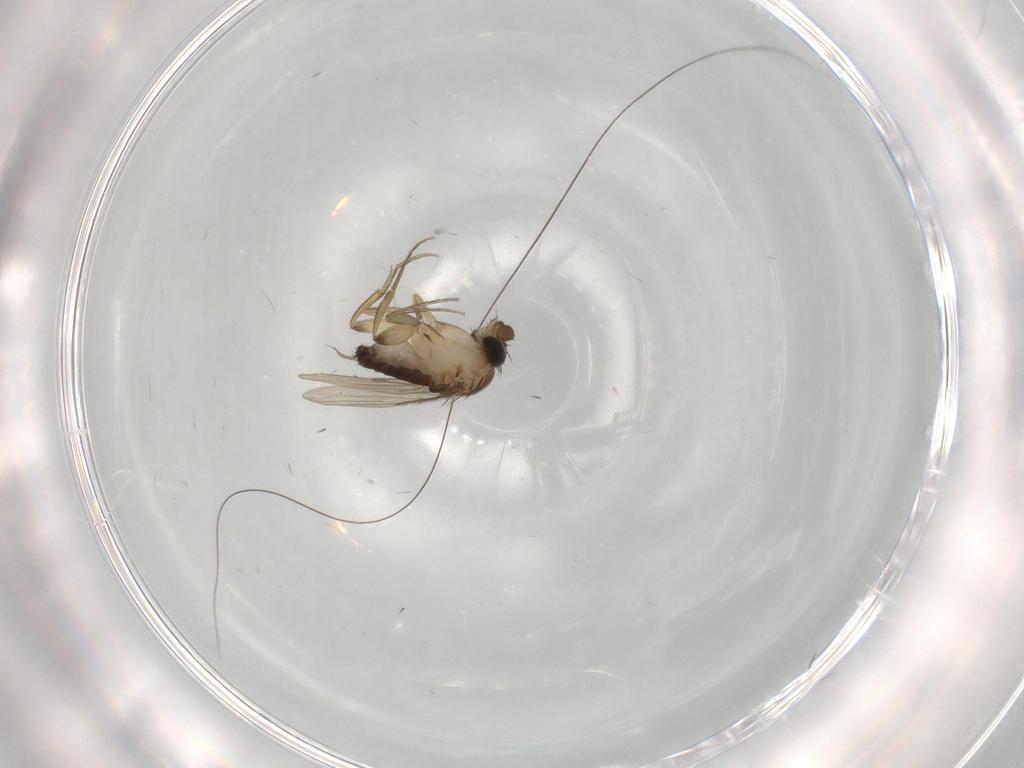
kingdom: Animalia
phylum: Arthropoda
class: Insecta
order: Diptera
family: Phoridae
